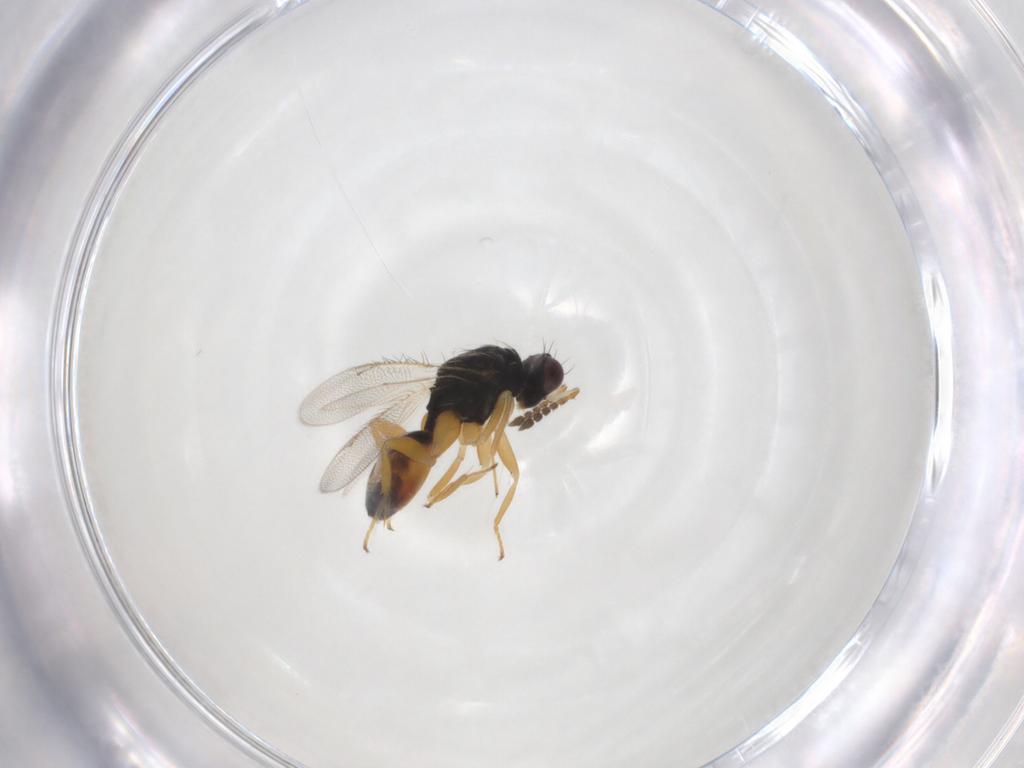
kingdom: Animalia
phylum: Arthropoda
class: Insecta
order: Hymenoptera
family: Eulophidae
